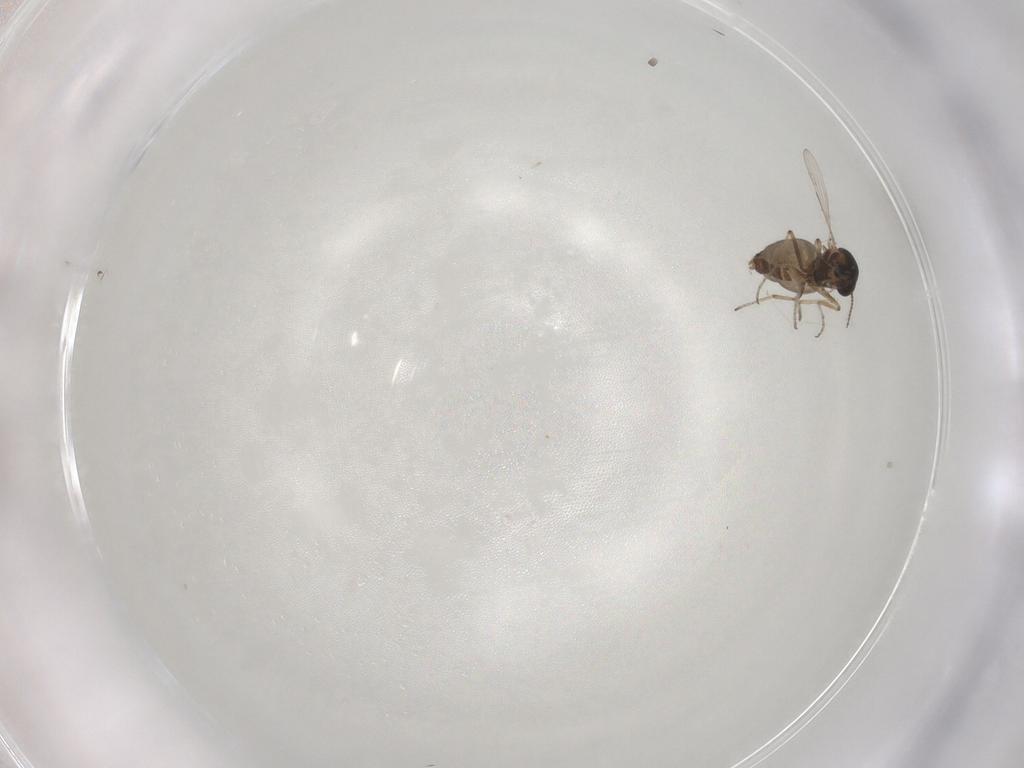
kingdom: Animalia
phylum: Arthropoda
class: Insecta
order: Diptera
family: Ceratopogonidae
